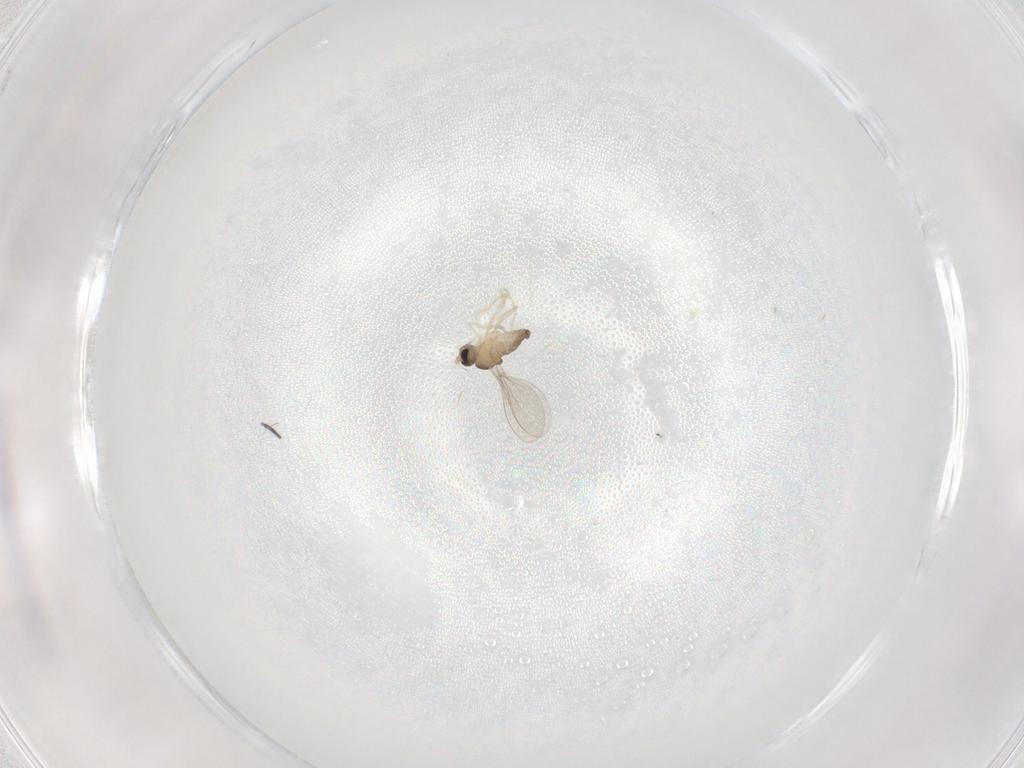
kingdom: Animalia
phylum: Arthropoda
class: Insecta
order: Diptera
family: Cecidomyiidae
